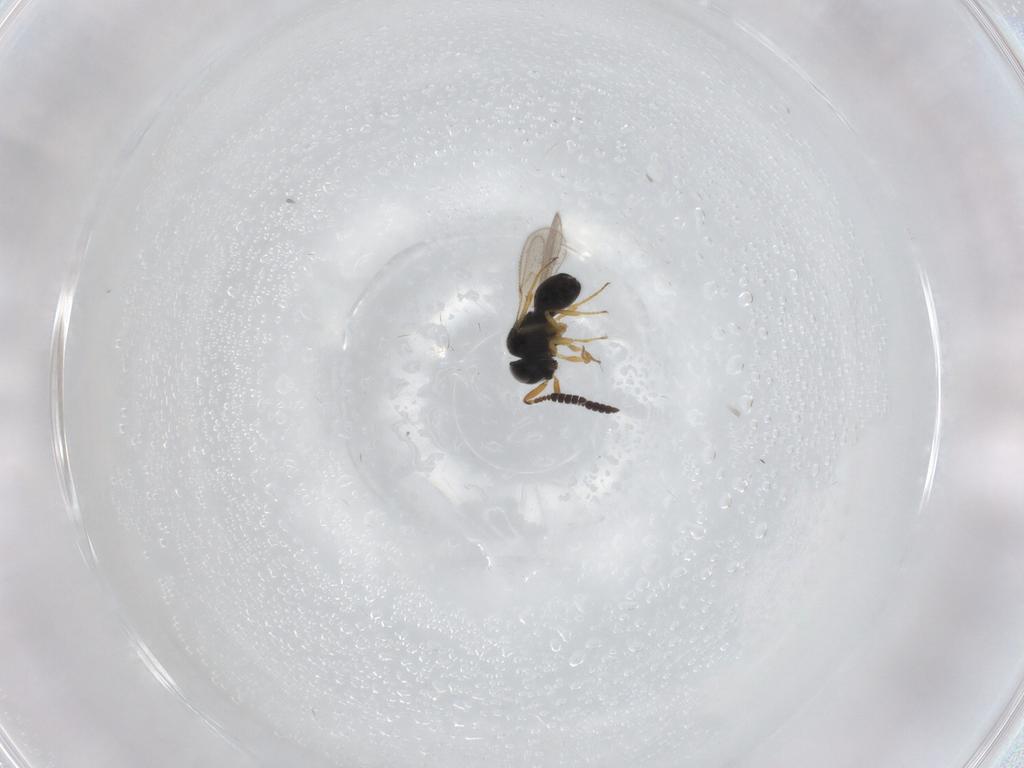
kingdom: Animalia
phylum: Arthropoda
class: Insecta
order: Hymenoptera
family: Scelionidae
